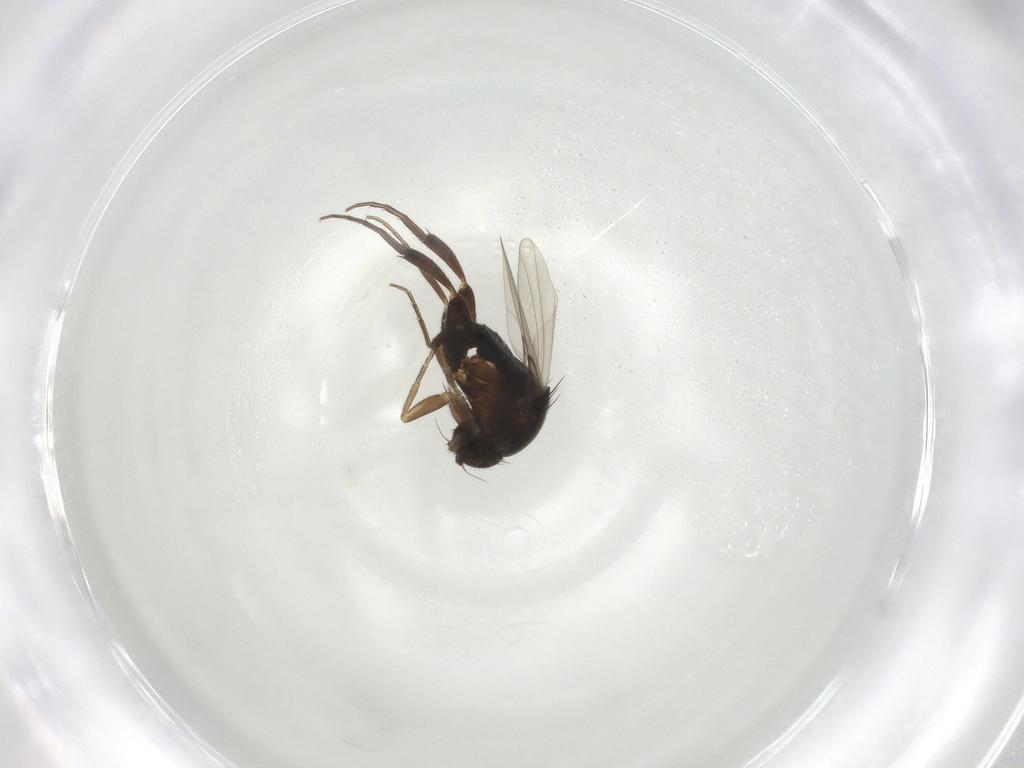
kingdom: Animalia
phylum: Arthropoda
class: Insecta
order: Diptera
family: Phoridae
